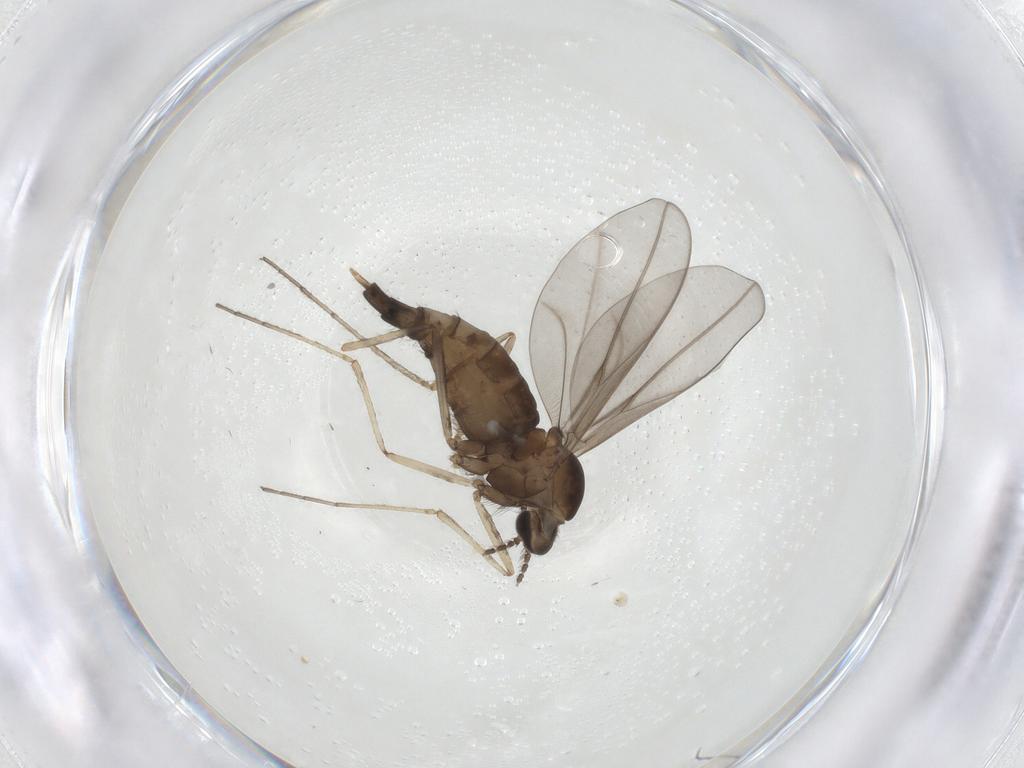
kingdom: Animalia
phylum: Arthropoda
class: Insecta
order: Diptera
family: Cecidomyiidae
